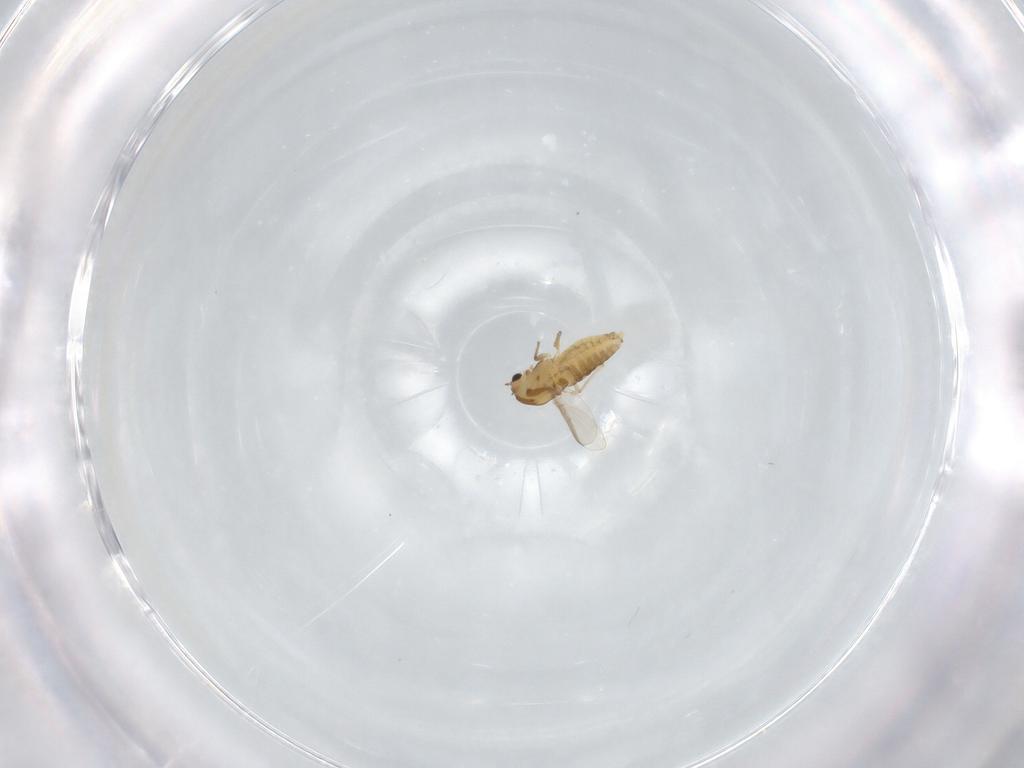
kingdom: Animalia
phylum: Arthropoda
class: Insecta
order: Diptera
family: Chironomidae
